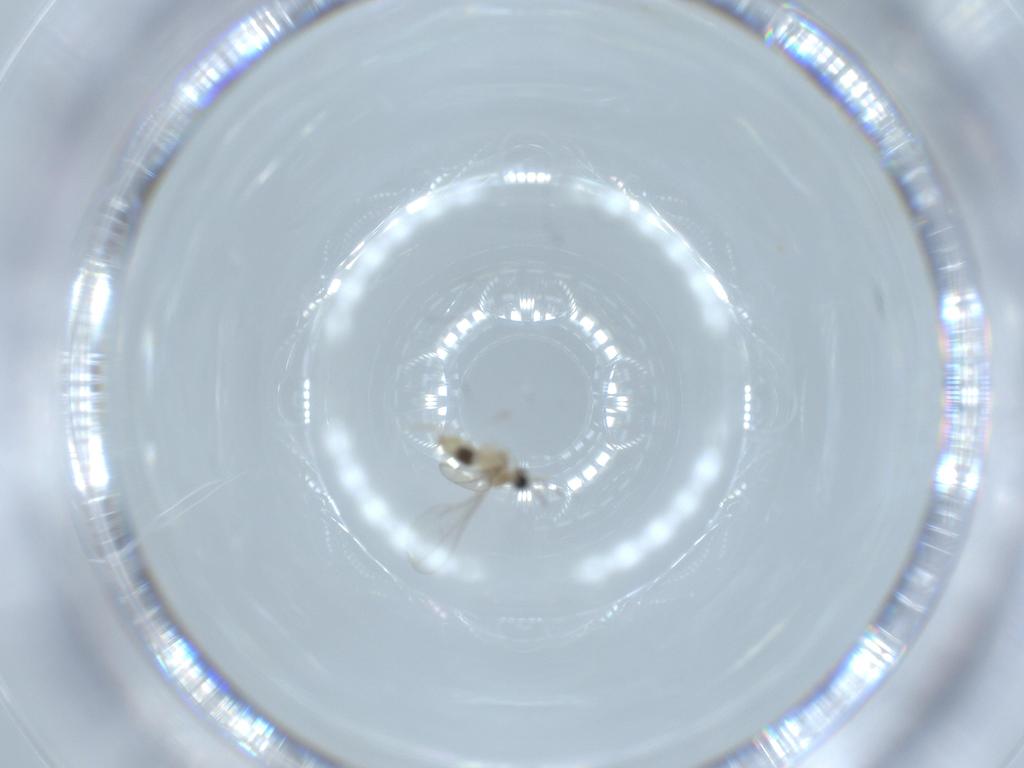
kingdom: Animalia
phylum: Arthropoda
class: Insecta
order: Diptera
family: Cecidomyiidae
